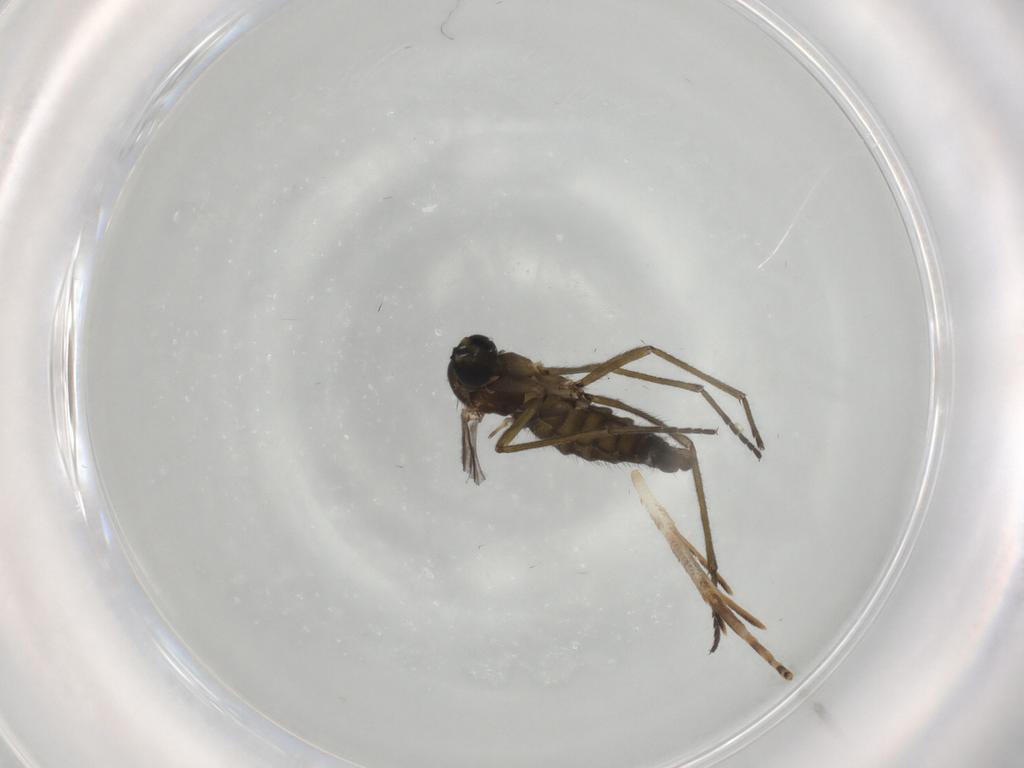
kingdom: Animalia
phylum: Arthropoda
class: Insecta
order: Diptera
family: Sciaridae
